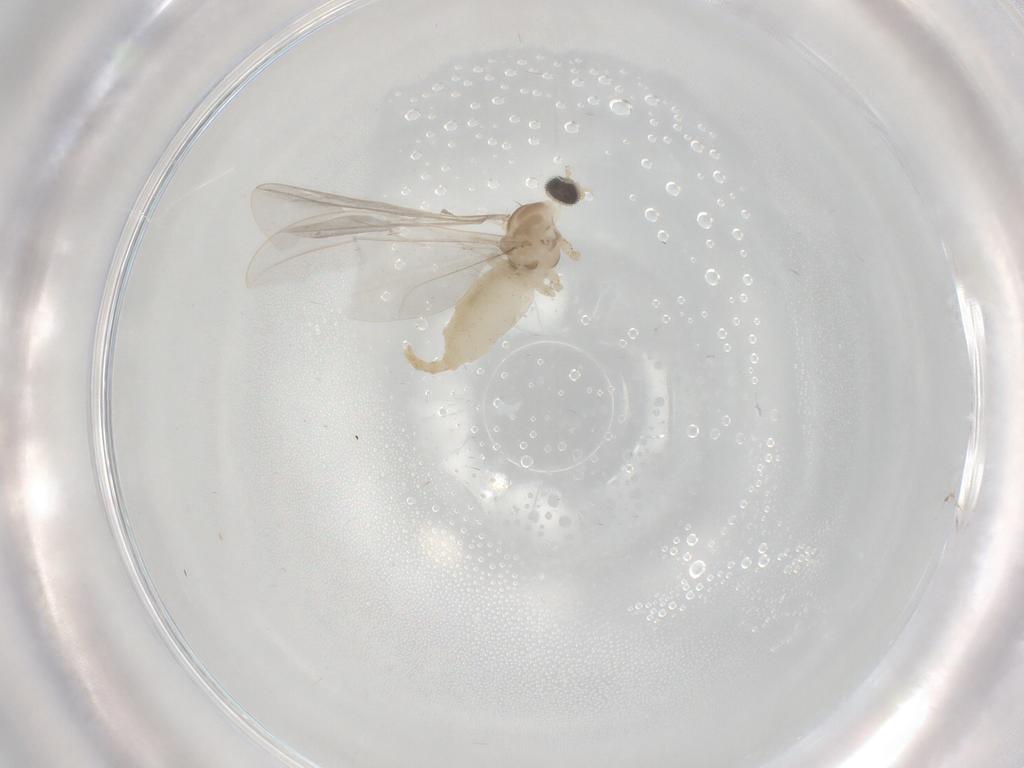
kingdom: Animalia
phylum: Arthropoda
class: Insecta
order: Diptera
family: Cecidomyiidae
